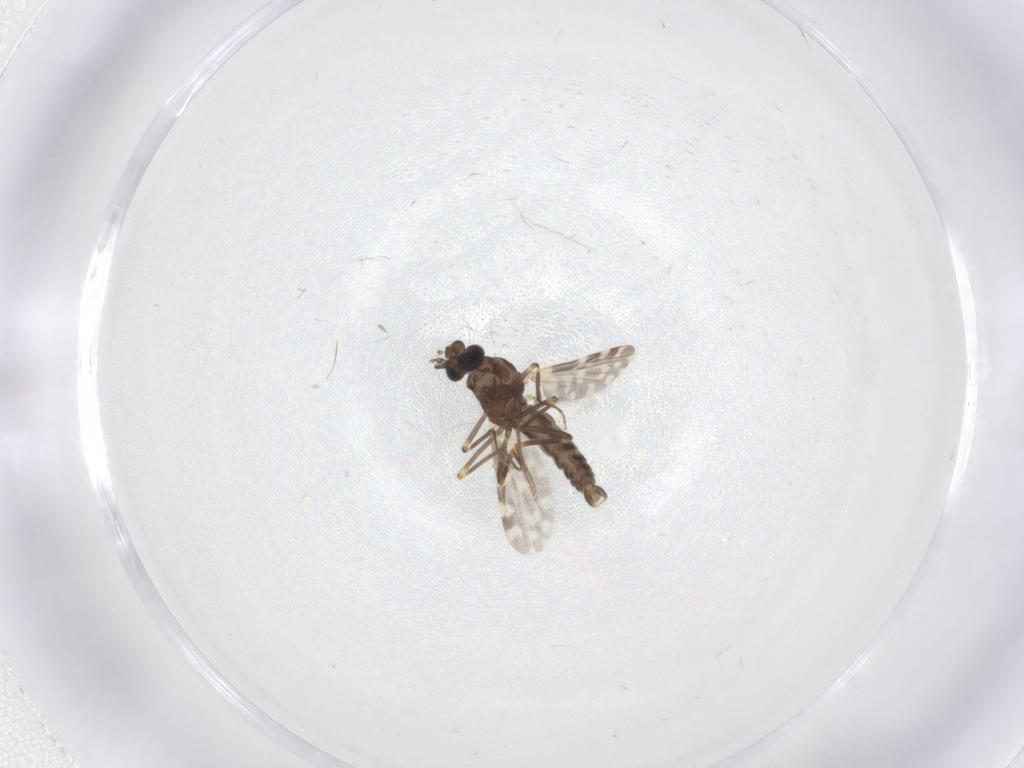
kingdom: Animalia
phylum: Arthropoda
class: Insecta
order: Diptera
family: Ceratopogonidae
